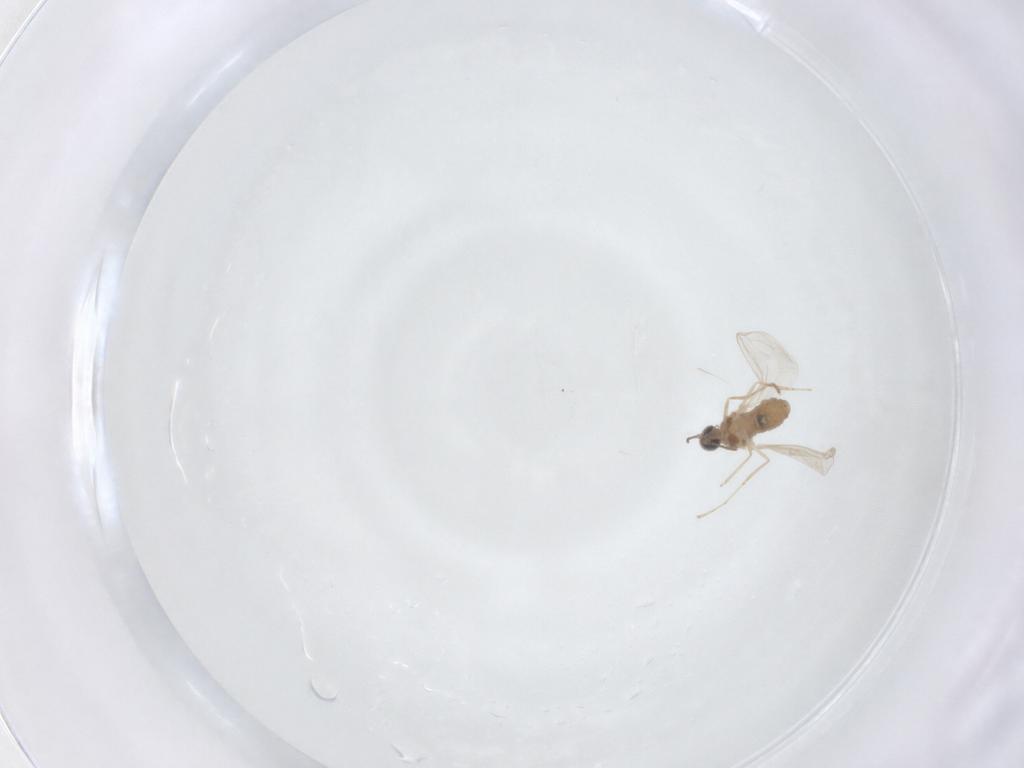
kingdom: Animalia
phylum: Arthropoda
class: Insecta
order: Diptera
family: Cecidomyiidae
